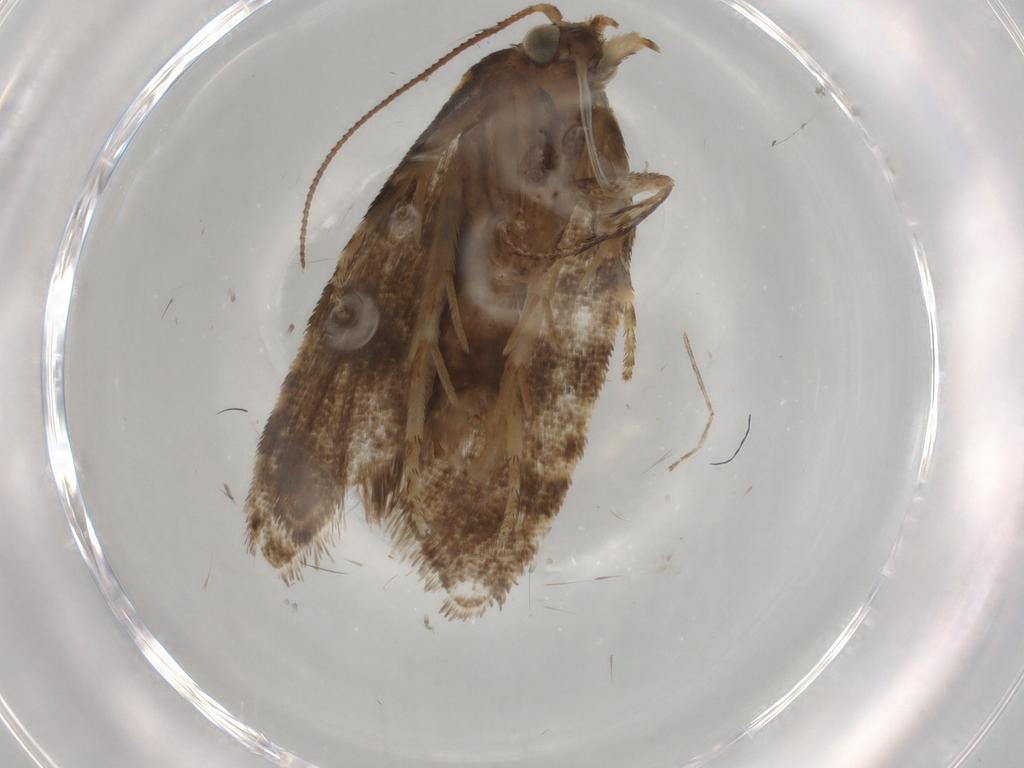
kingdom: Animalia
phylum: Arthropoda
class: Insecta
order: Lepidoptera
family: Tortricidae
